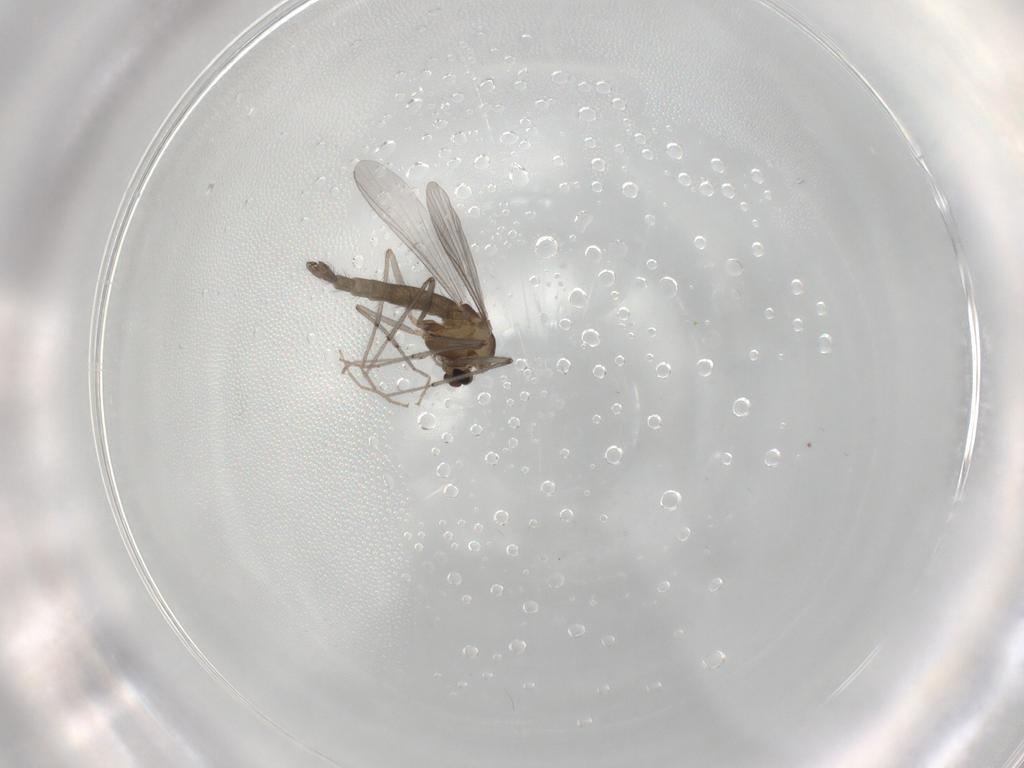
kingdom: Animalia
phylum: Arthropoda
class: Insecta
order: Diptera
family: Chironomidae
